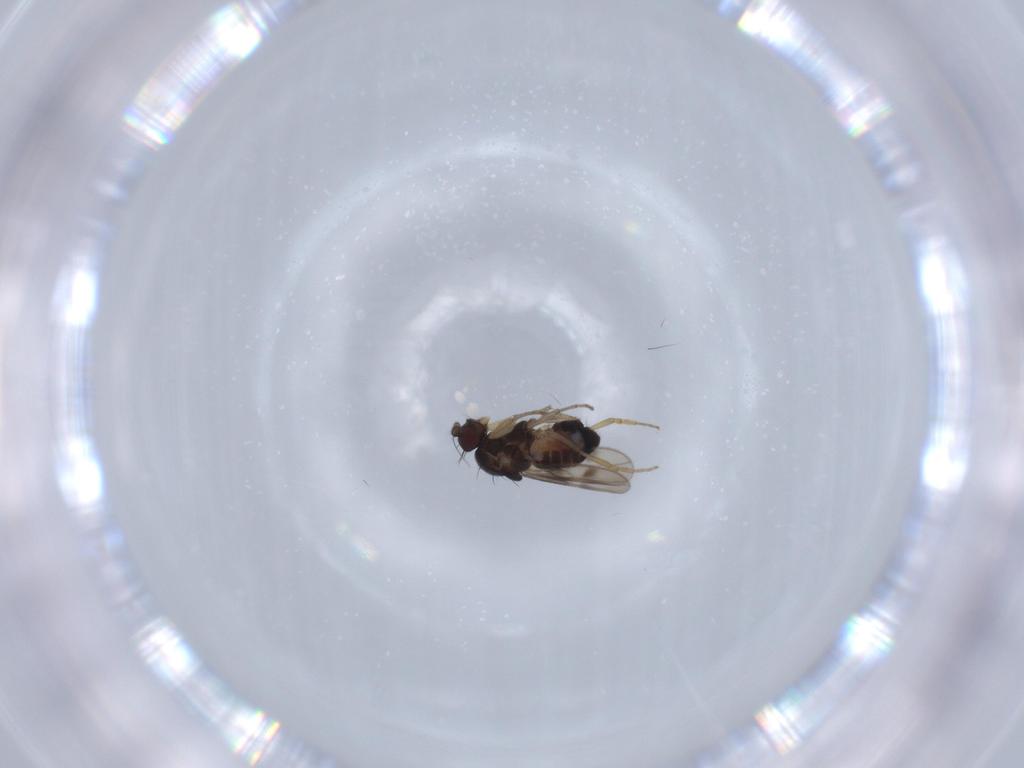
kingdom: Animalia
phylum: Arthropoda
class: Insecta
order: Diptera
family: Sphaeroceridae
